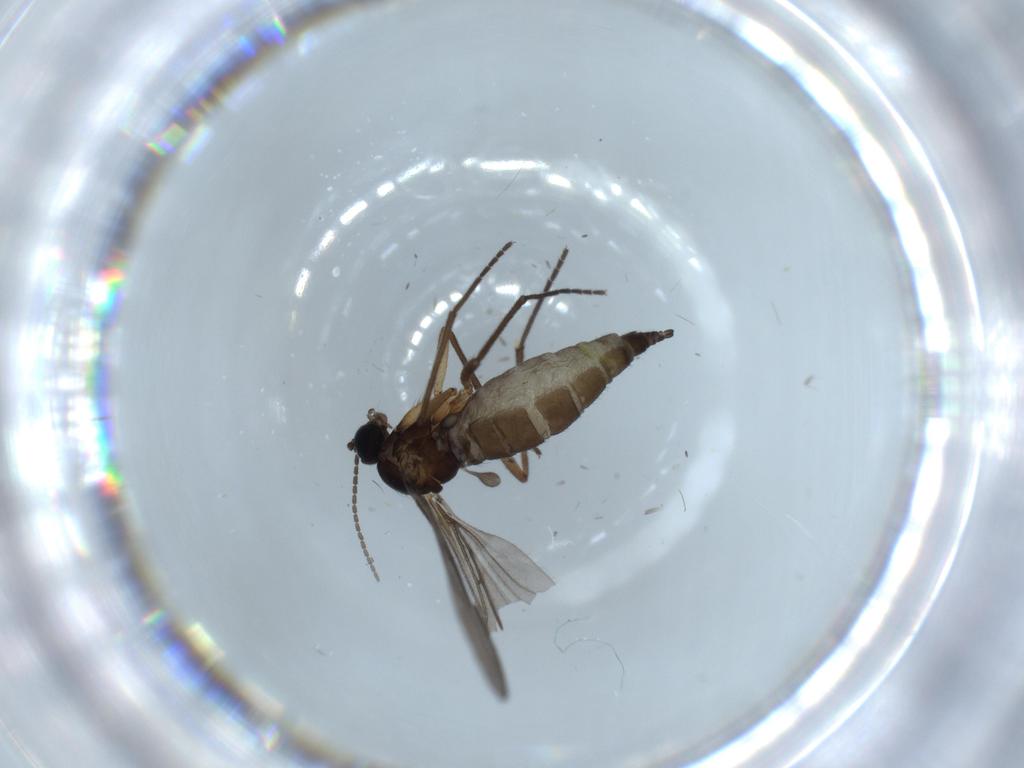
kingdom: Animalia
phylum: Arthropoda
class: Insecta
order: Diptera
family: Sciaridae
